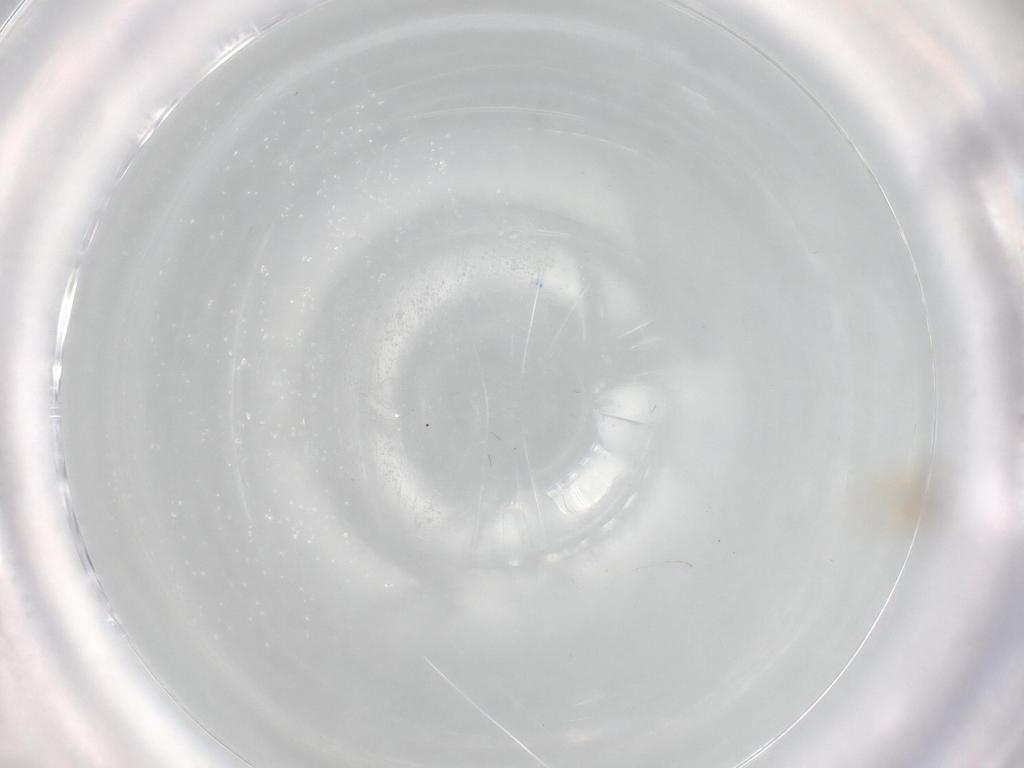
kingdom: Animalia
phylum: Arthropoda
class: Insecta
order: Diptera
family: Cecidomyiidae
